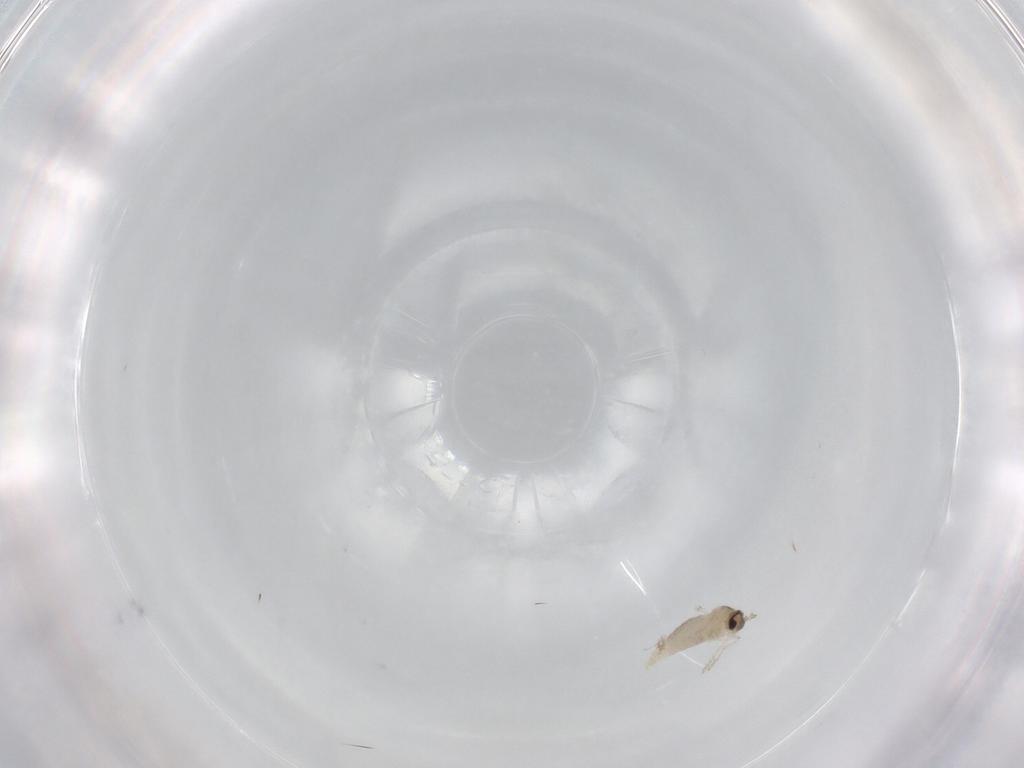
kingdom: Animalia
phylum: Arthropoda
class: Insecta
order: Diptera
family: Cecidomyiidae
